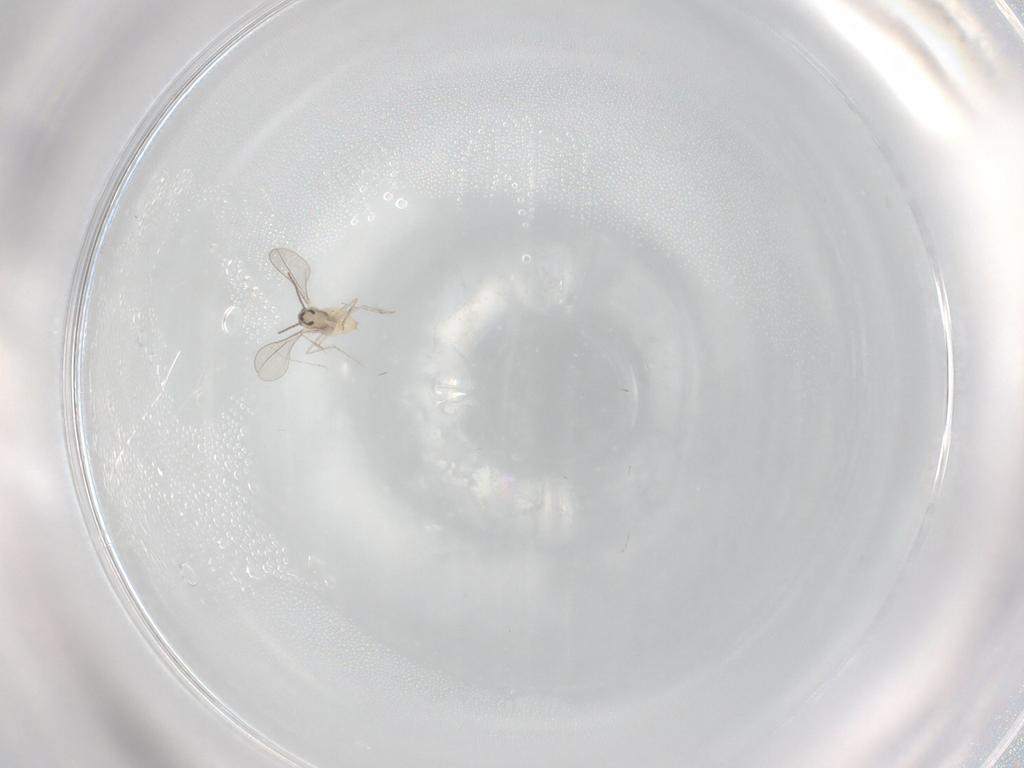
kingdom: Animalia
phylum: Arthropoda
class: Insecta
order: Diptera
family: Cecidomyiidae
